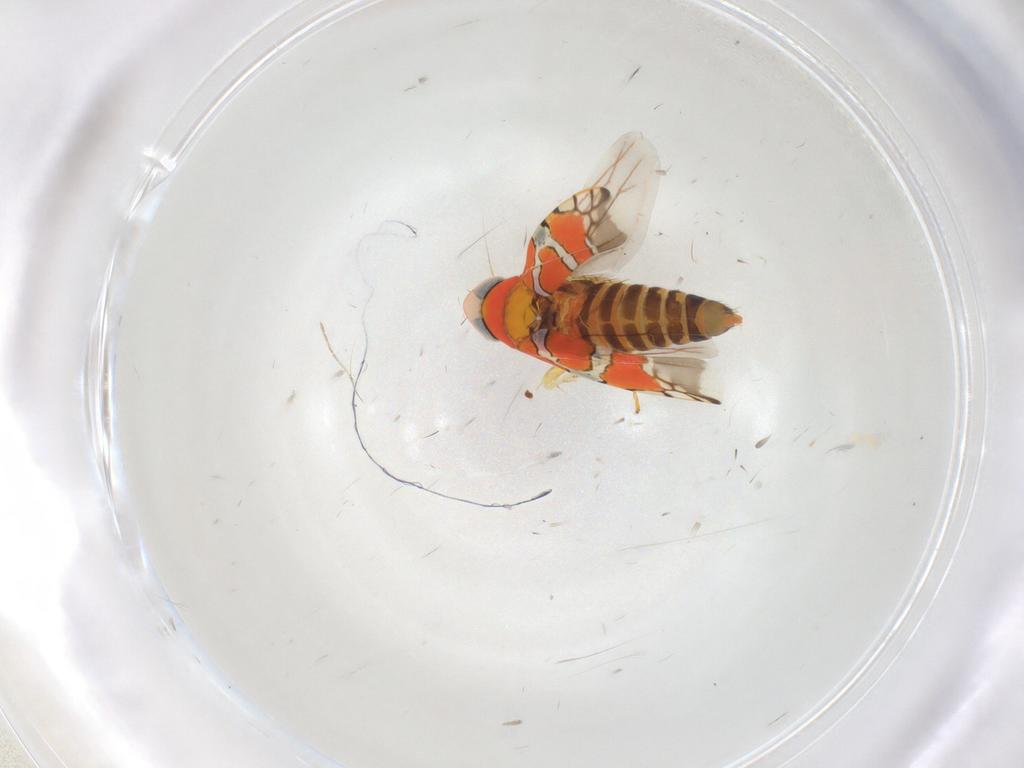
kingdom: Animalia
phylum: Arthropoda
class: Insecta
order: Hemiptera
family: Cicadellidae
